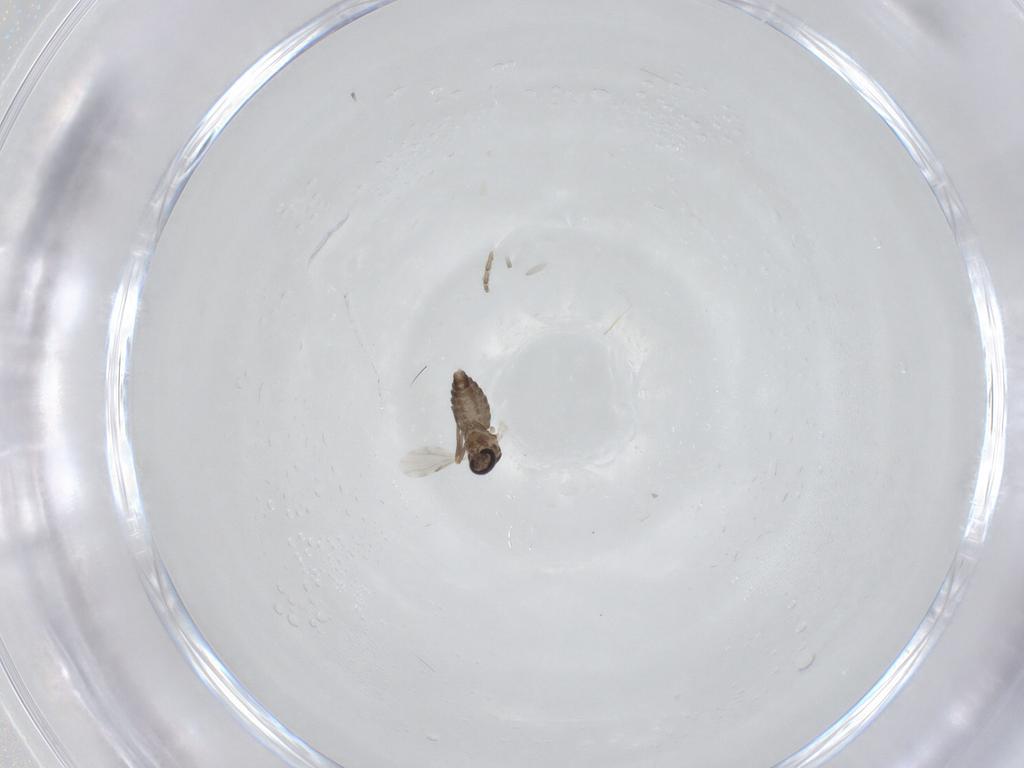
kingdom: Animalia
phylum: Arthropoda
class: Insecta
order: Diptera
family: Ceratopogonidae
